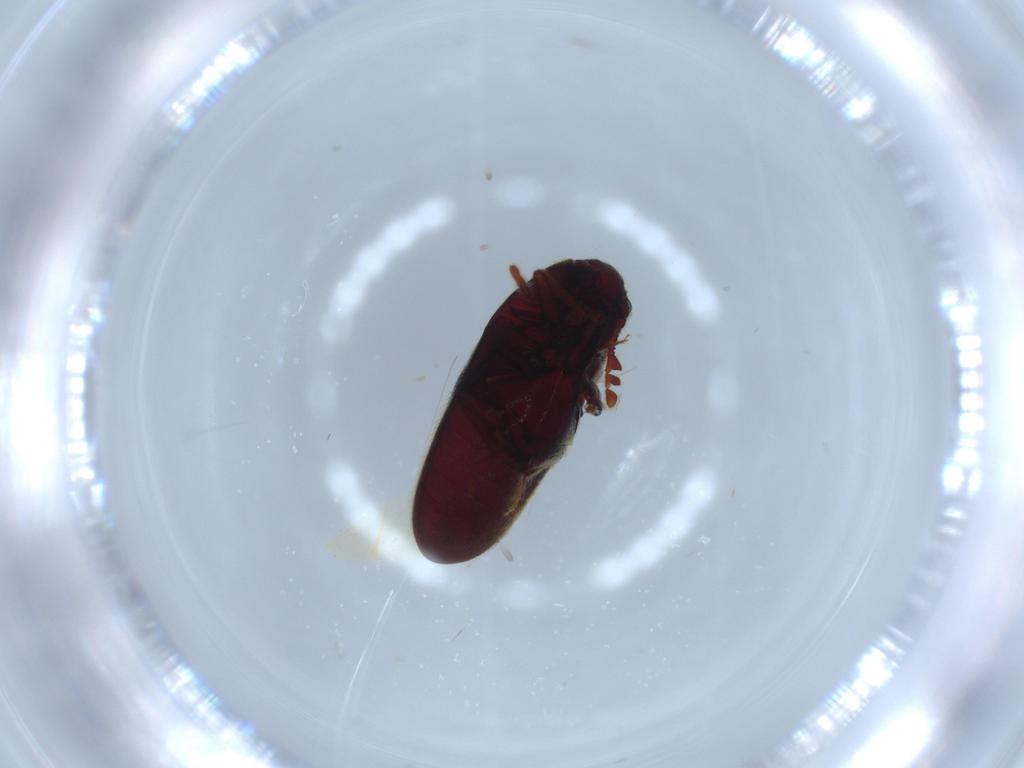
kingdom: Animalia
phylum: Arthropoda
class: Insecta
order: Coleoptera
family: Throscidae
